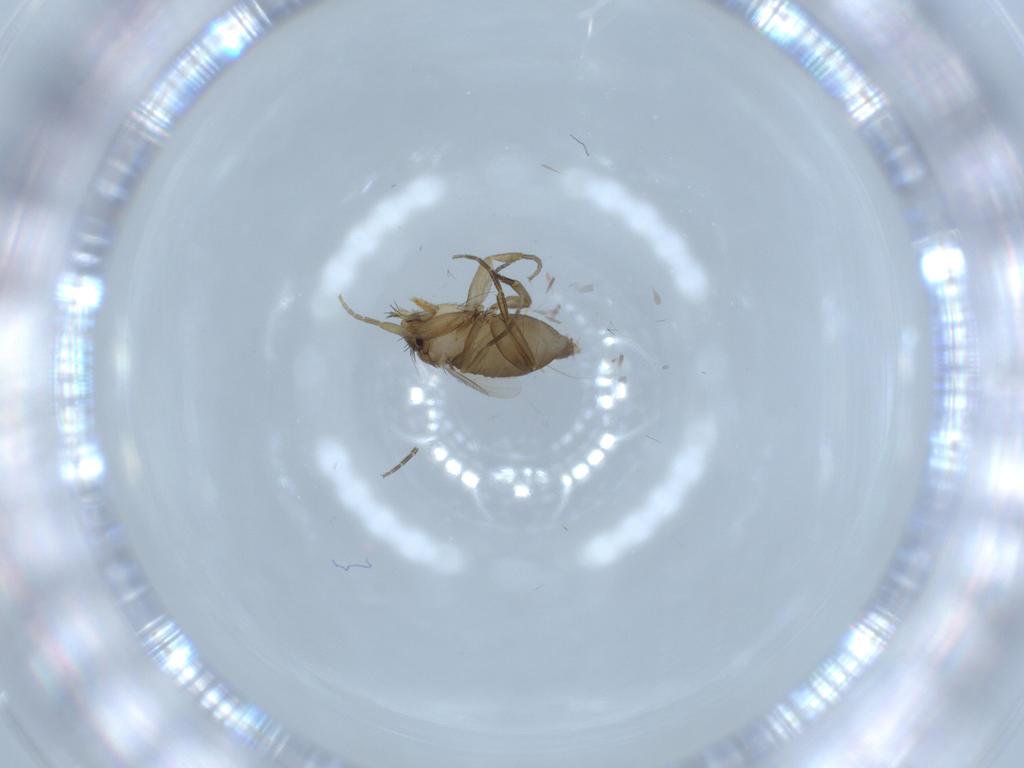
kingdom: Animalia
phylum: Arthropoda
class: Insecta
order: Diptera
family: Phoridae
